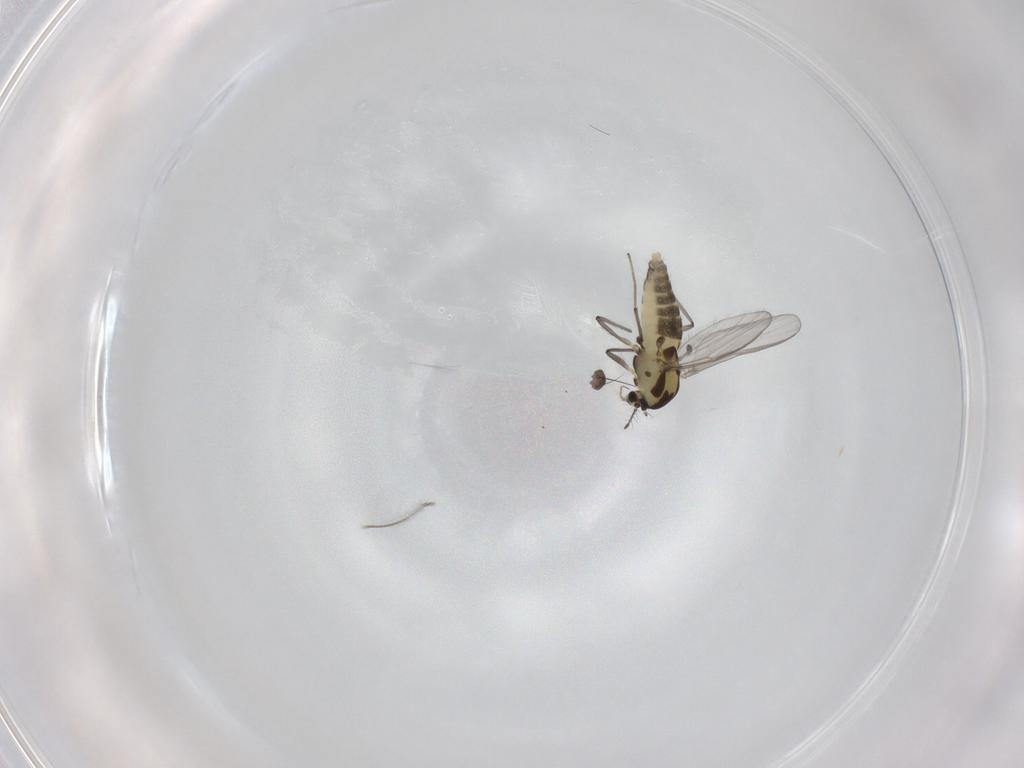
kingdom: Animalia
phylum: Arthropoda
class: Insecta
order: Diptera
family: Chironomidae
